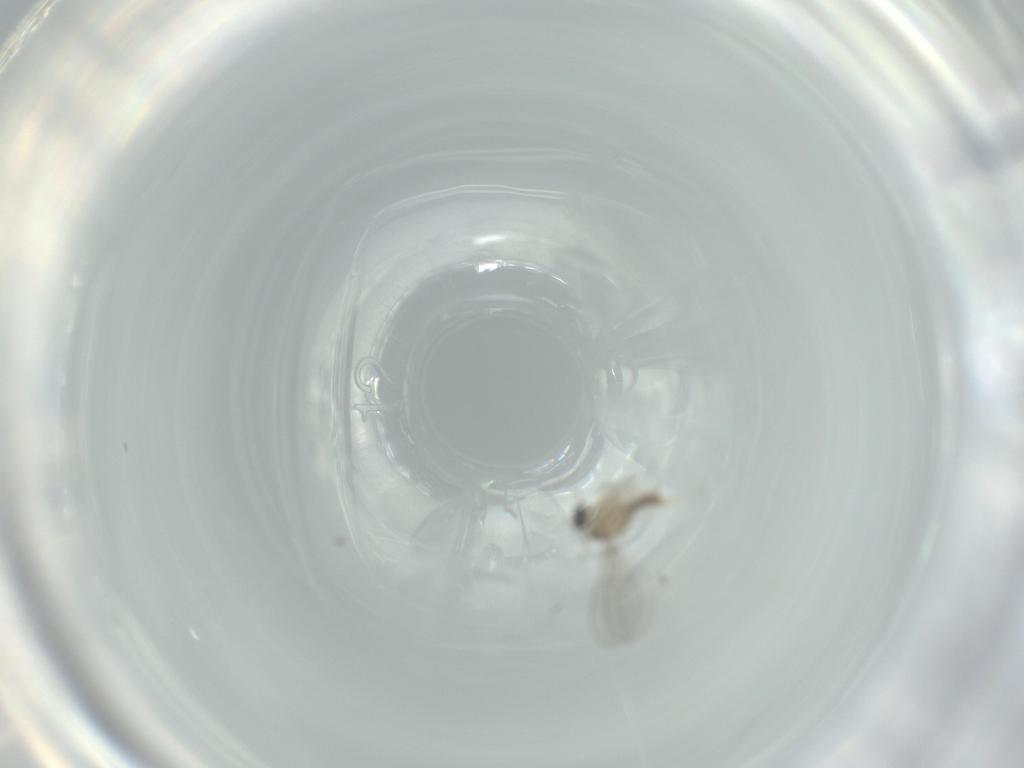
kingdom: Animalia
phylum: Arthropoda
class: Insecta
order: Diptera
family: Cecidomyiidae
